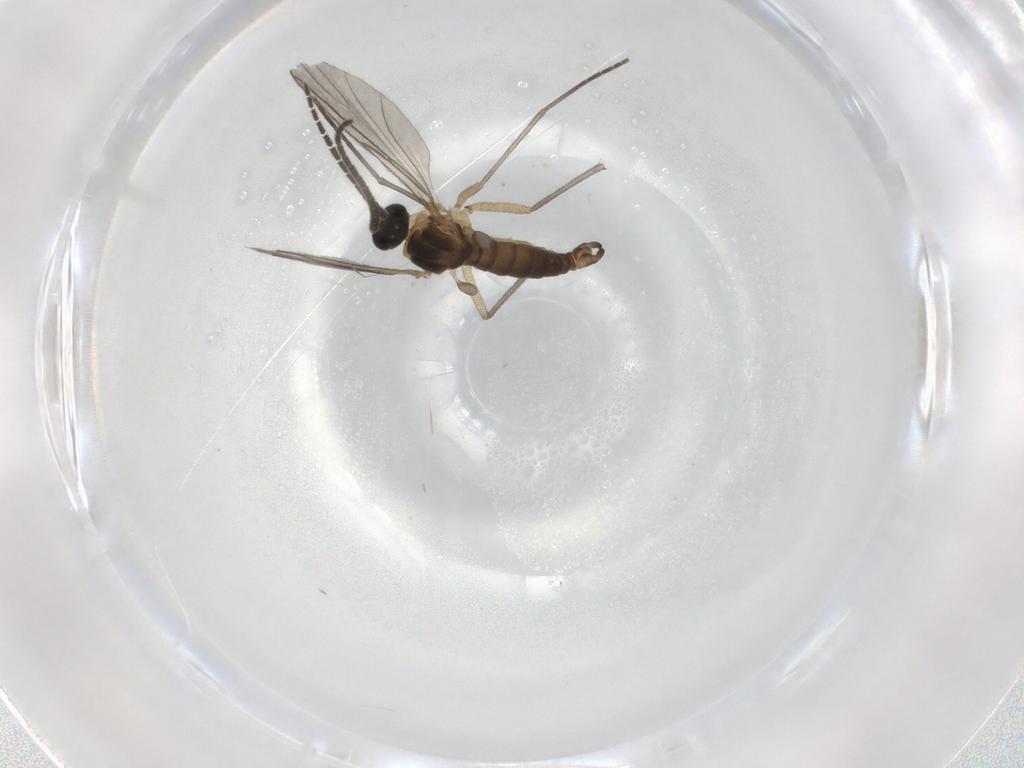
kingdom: Animalia
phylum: Arthropoda
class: Insecta
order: Diptera
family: Sciaridae
